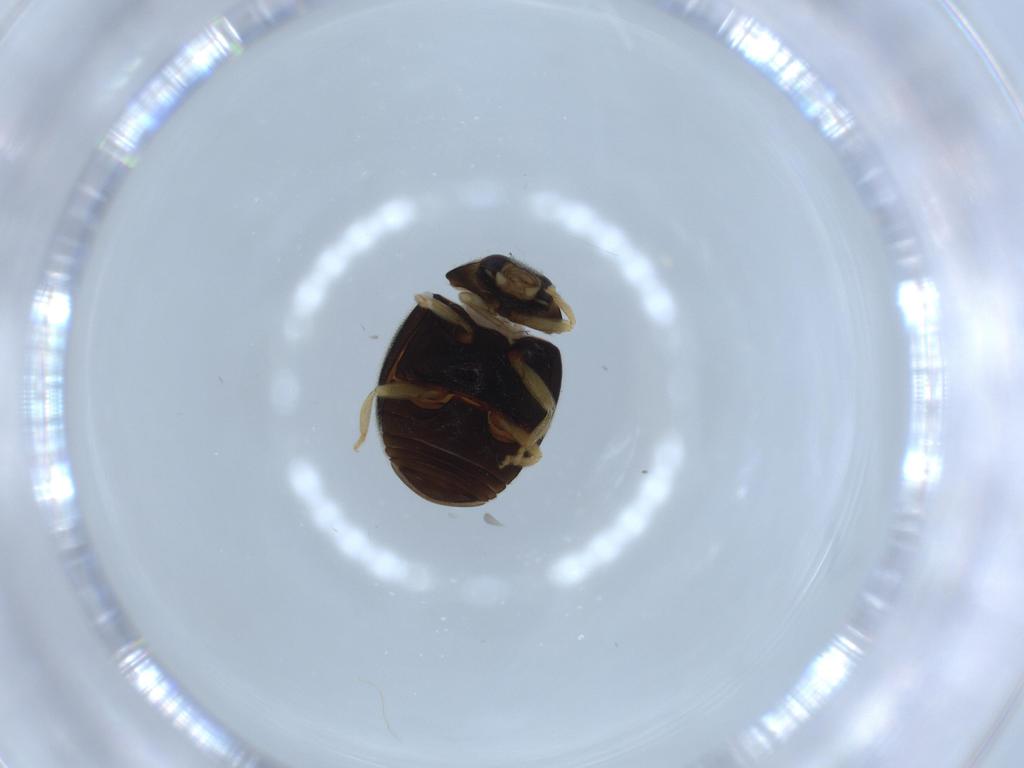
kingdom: Animalia
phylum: Arthropoda
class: Insecta
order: Coleoptera
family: Coccinellidae
